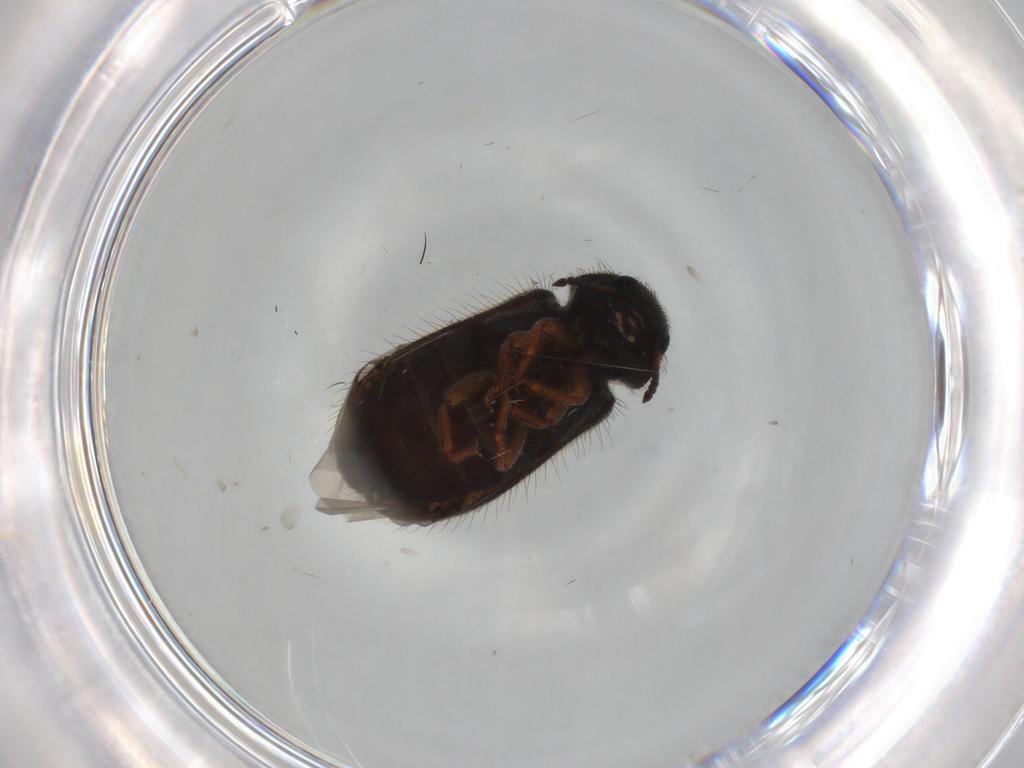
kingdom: Animalia
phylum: Arthropoda
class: Insecta
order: Coleoptera
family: Melyridae
